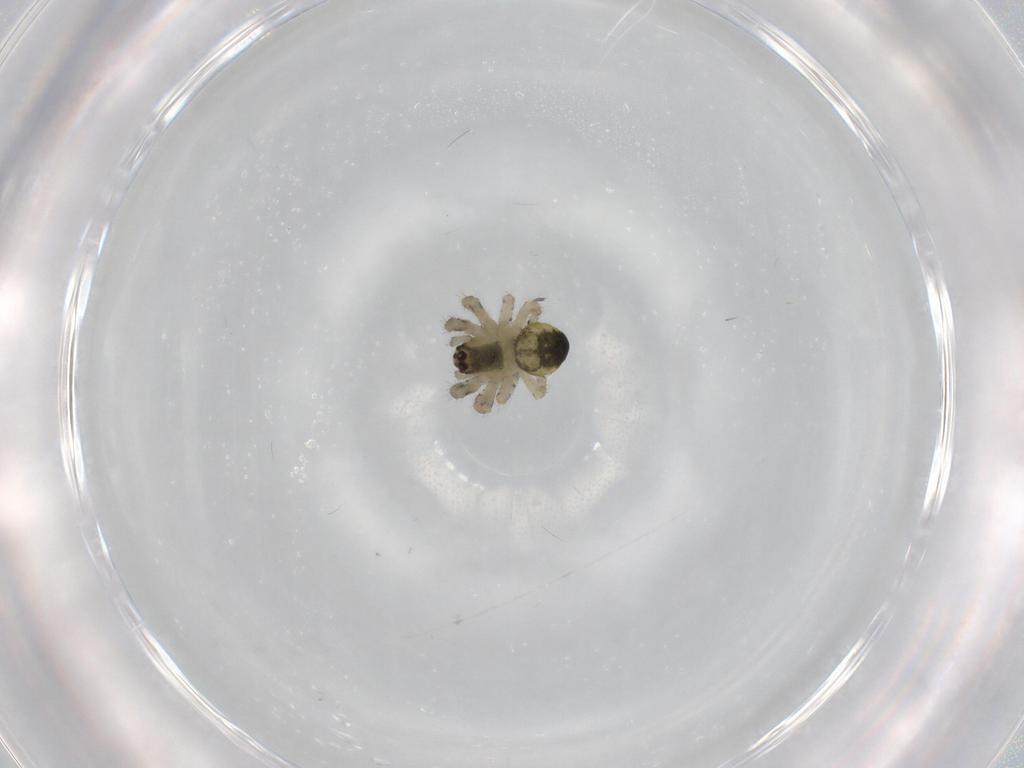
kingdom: Animalia
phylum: Arthropoda
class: Arachnida
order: Araneae
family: Araneidae
